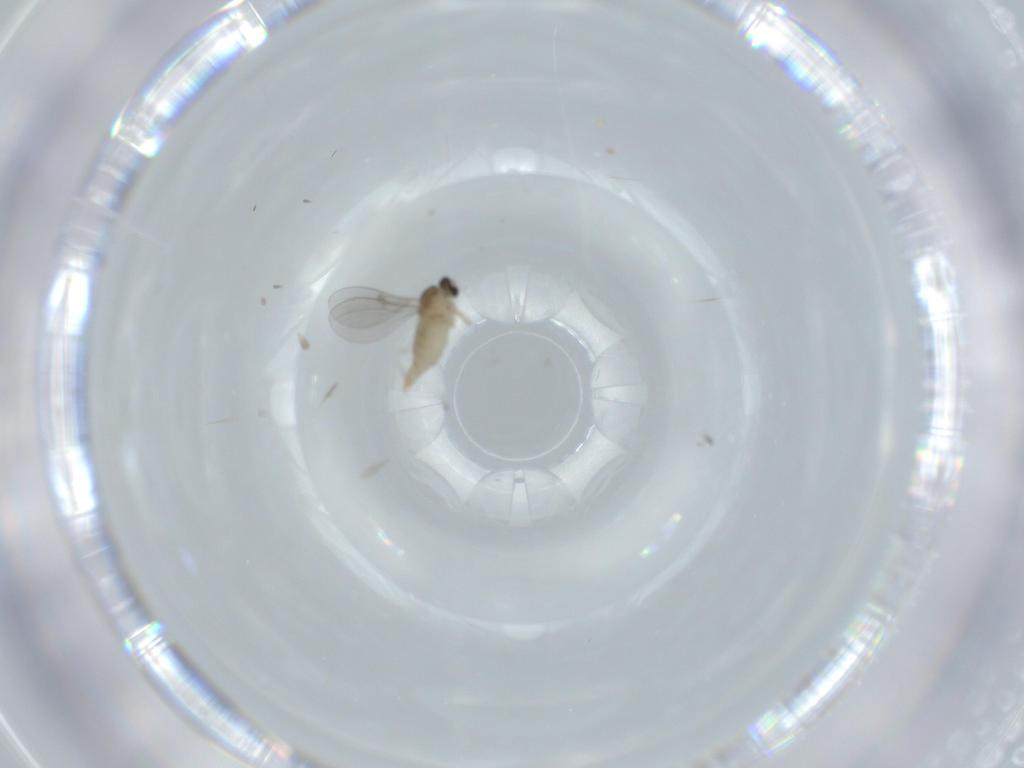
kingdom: Animalia
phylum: Arthropoda
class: Insecta
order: Diptera
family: Cecidomyiidae
